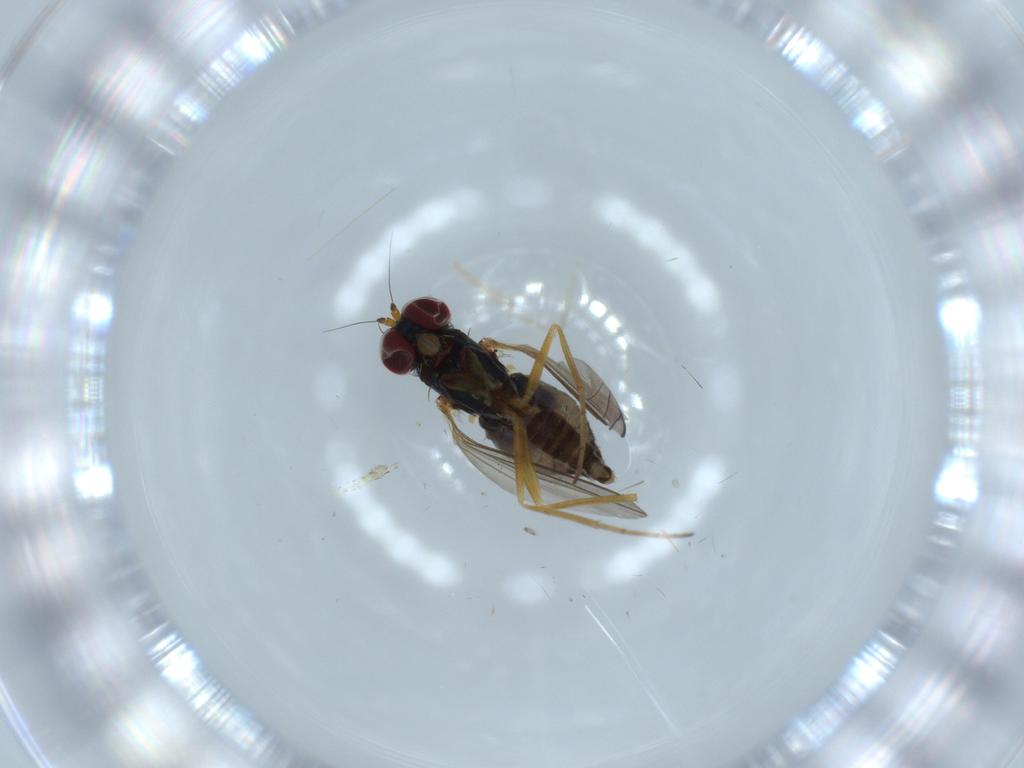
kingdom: Animalia
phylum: Arthropoda
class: Insecta
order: Diptera
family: Dolichopodidae
